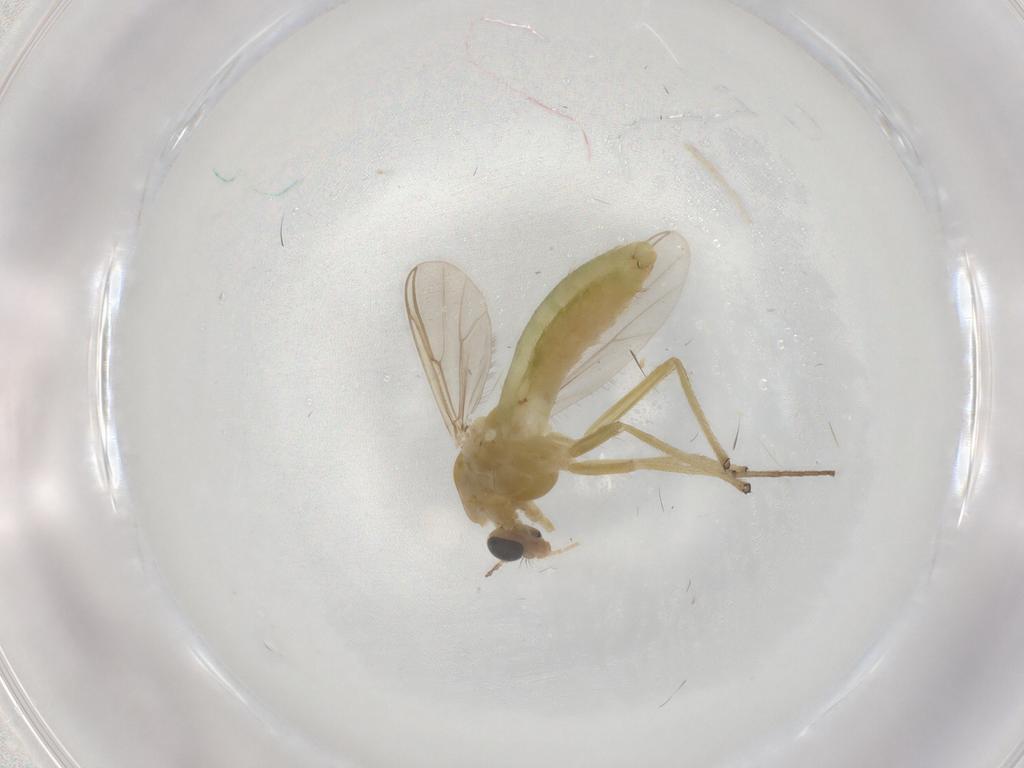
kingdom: Animalia
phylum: Arthropoda
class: Insecta
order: Diptera
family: Chironomidae
